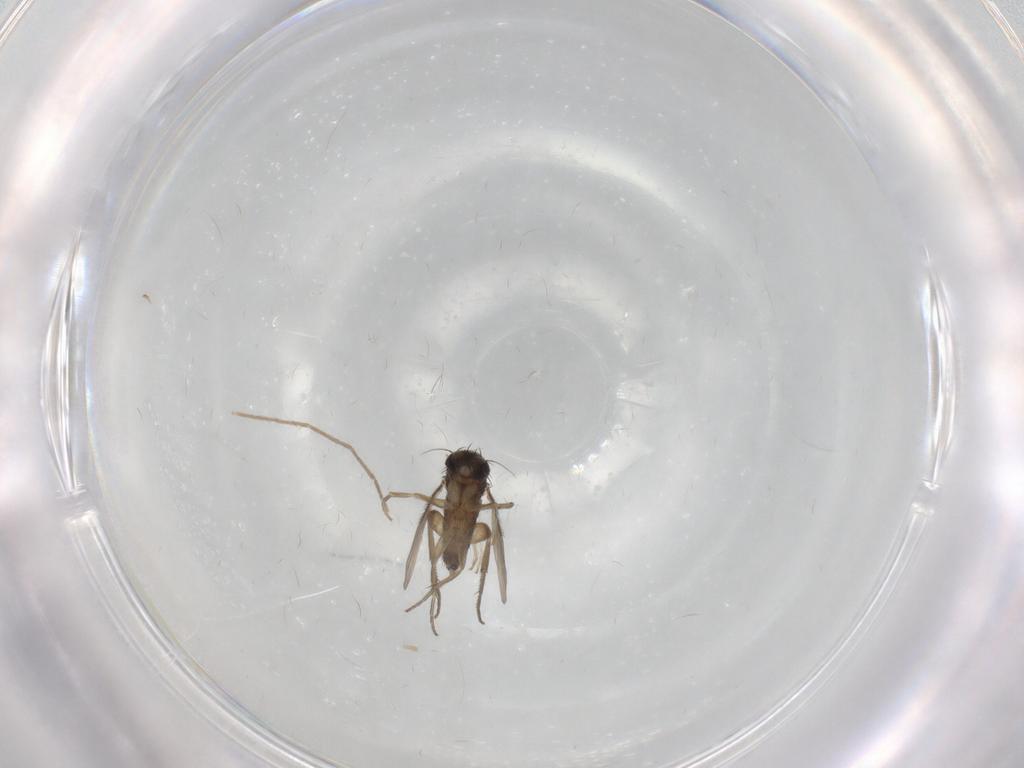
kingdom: Animalia
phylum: Arthropoda
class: Insecta
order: Diptera
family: Phoridae
